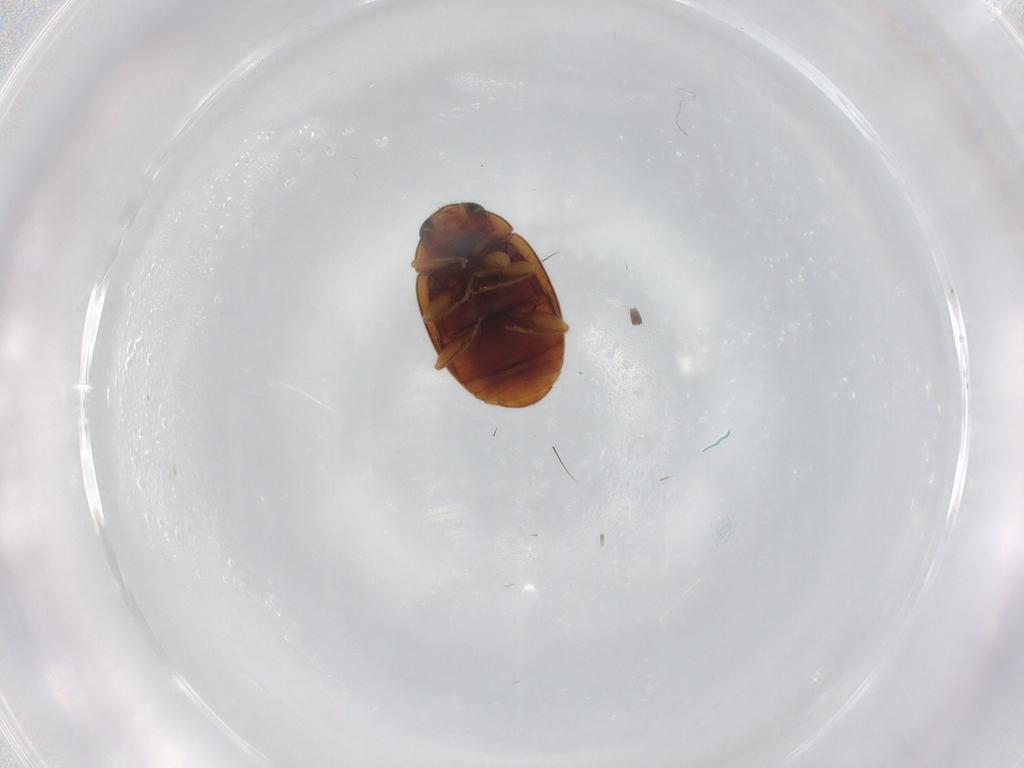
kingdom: Animalia
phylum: Arthropoda
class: Insecta
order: Coleoptera
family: Coccinellidae
